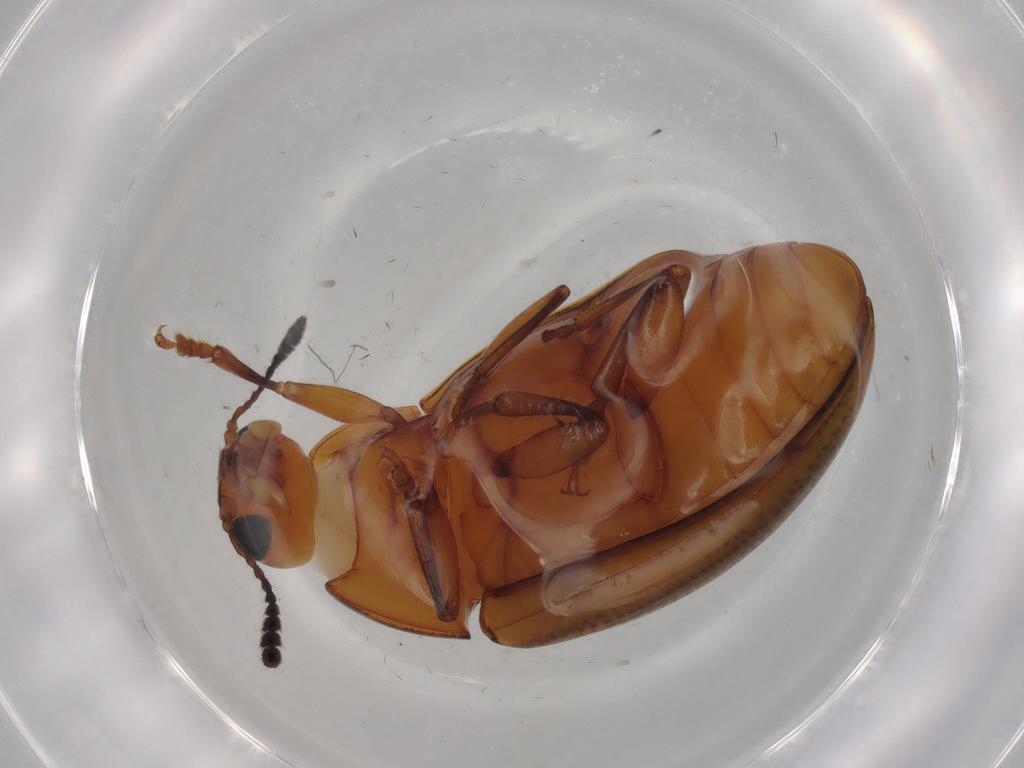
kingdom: Animalia
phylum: Arthropoda
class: Insecta
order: Coleoptera
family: Erotylidae
